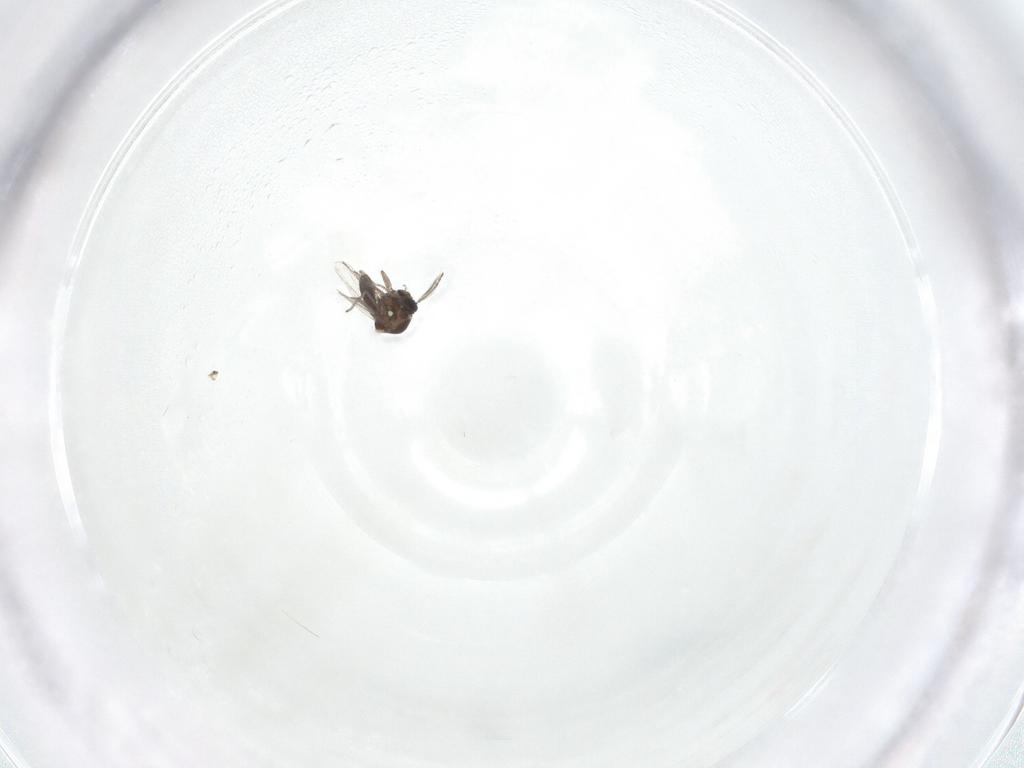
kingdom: Animalia
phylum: Arthropoda
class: Insecta
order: Diptera
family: Ceratopogonidae
